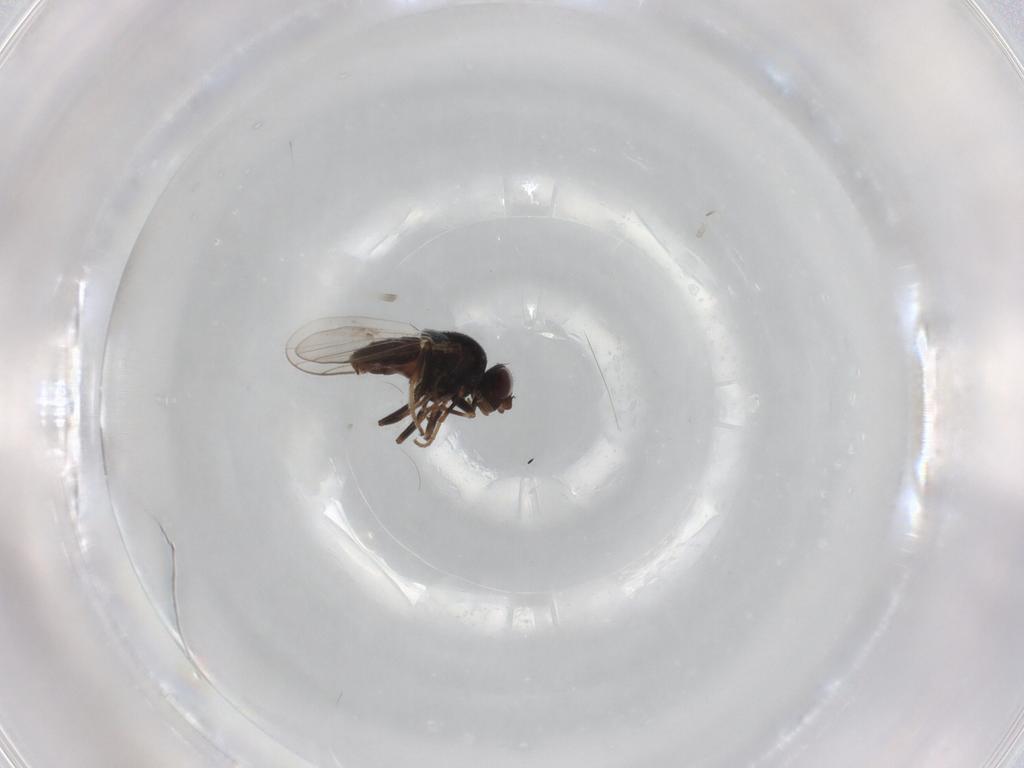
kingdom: Animalia
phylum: Arthropoda
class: Insecta
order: Diptera
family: Chloropidae
